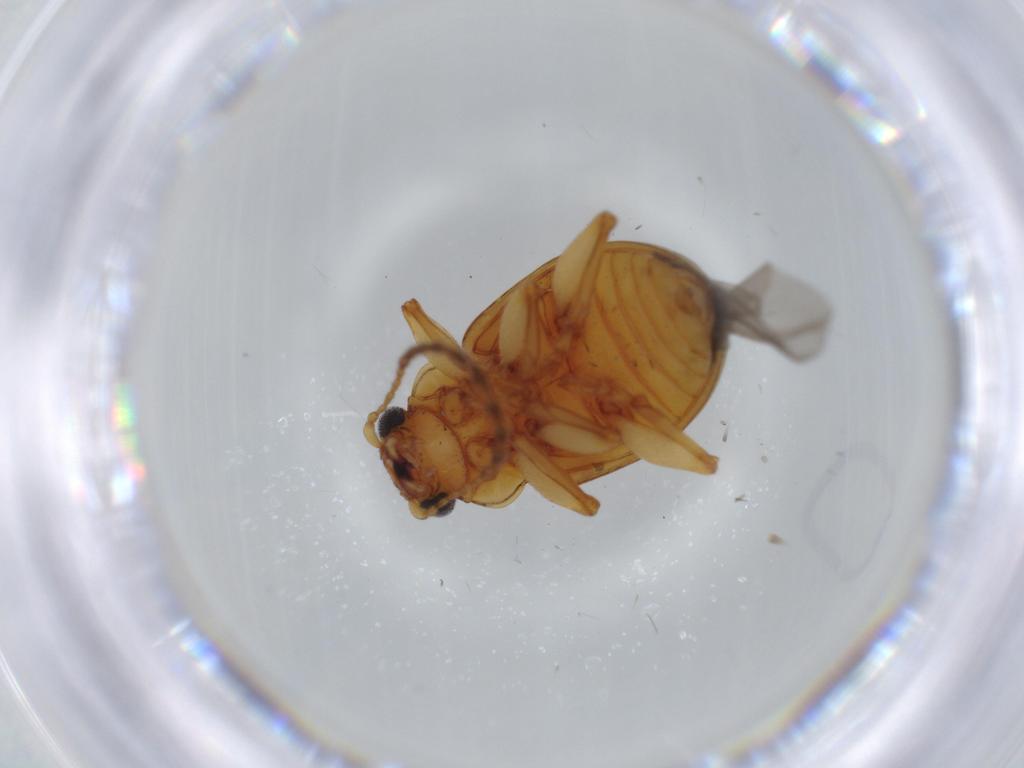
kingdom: Animalia
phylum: Arthropoda
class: Insecta
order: Coleoptera
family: Chrysomelidae
